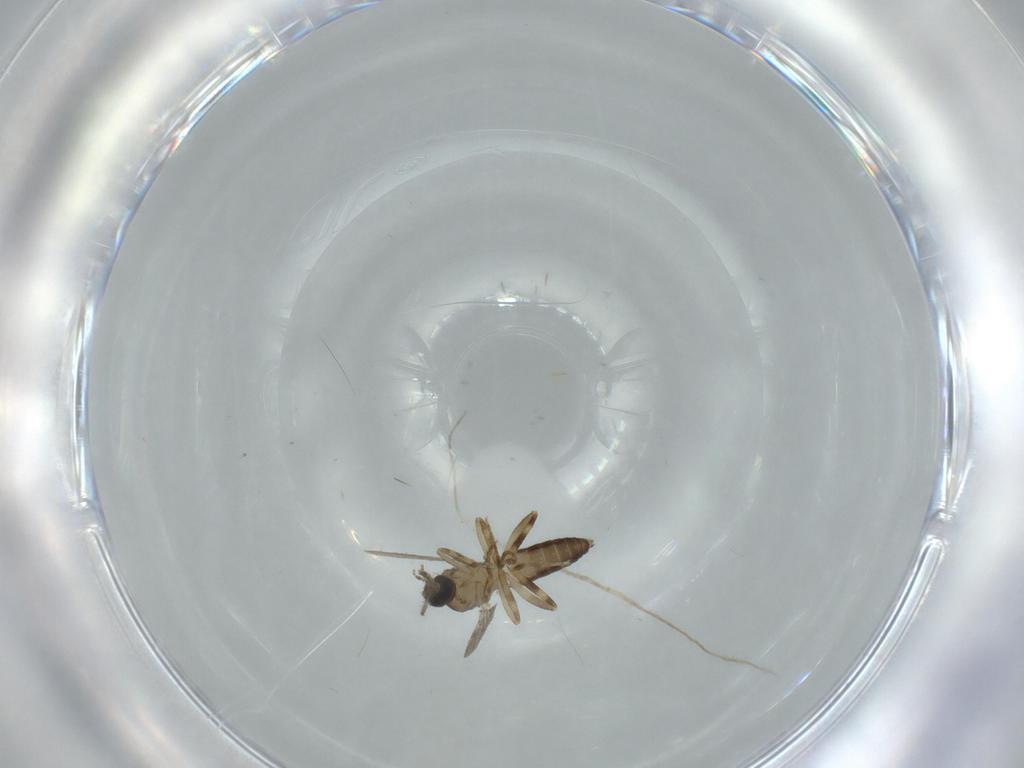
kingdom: Animalia
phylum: Arthropoda
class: Insecta
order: Diptera
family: Ceratopogonidae
